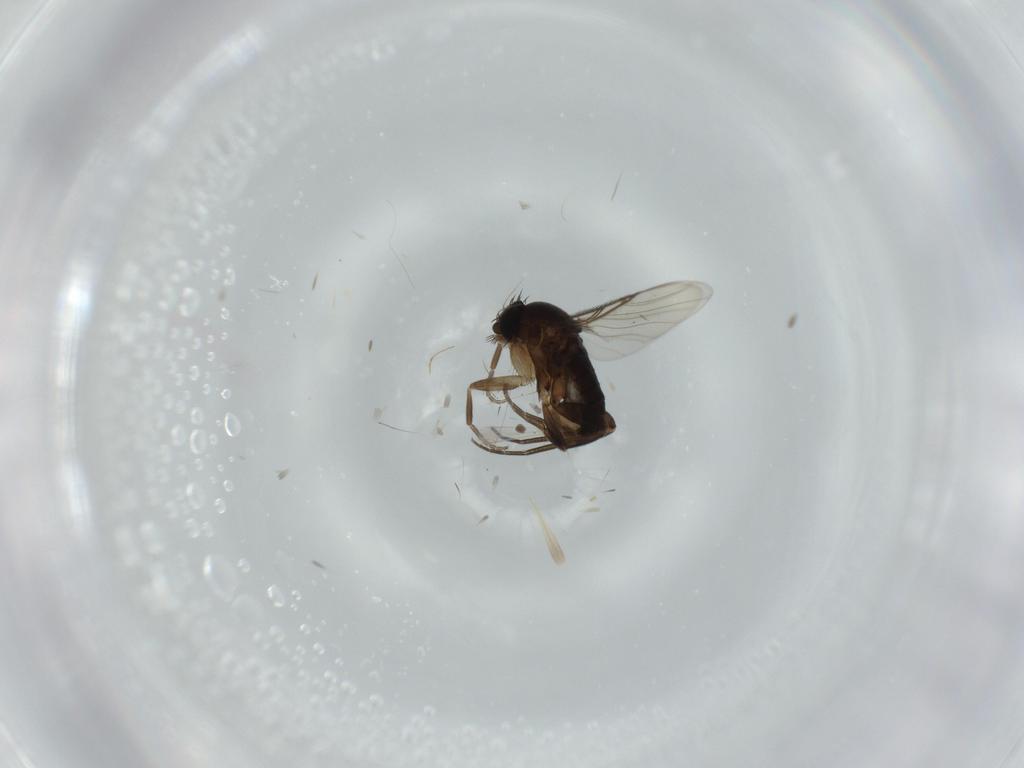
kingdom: Animalia
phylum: Arthropoda
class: Insecta
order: Diptera
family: Phoridae
